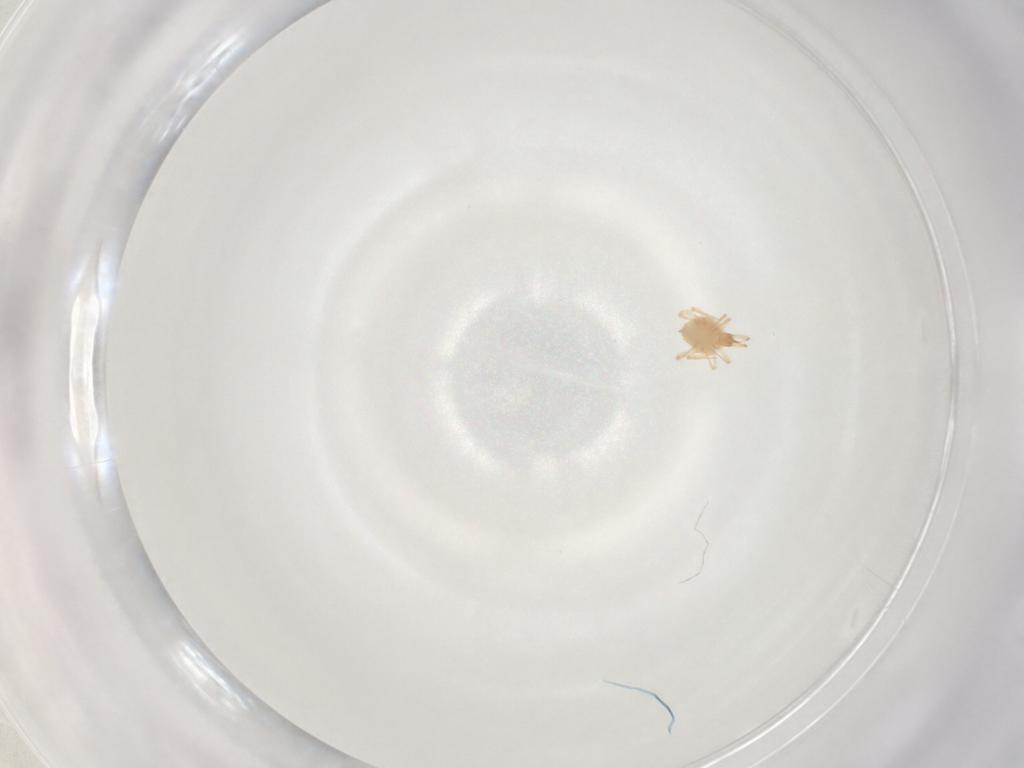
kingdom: Animalia
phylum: Arthropoda
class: Arachnida
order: Trombidiformes
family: Cunaxidae
